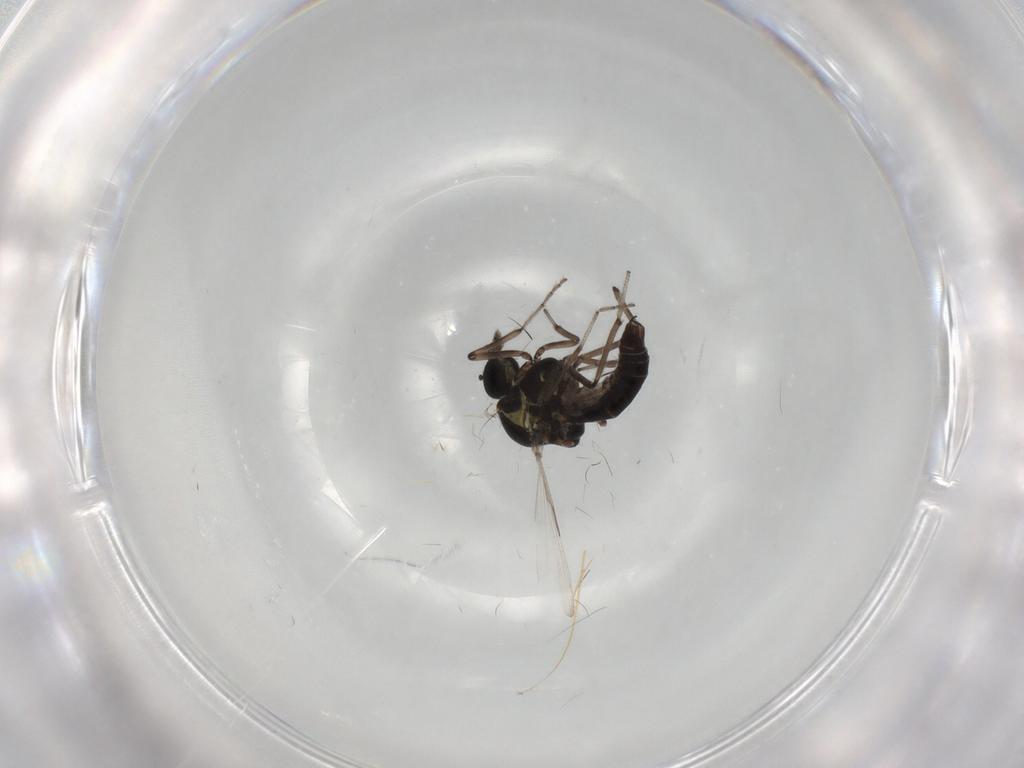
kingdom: Animalia
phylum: Arthropoda
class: Insecta
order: Diptera
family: Ceratopogonidae
